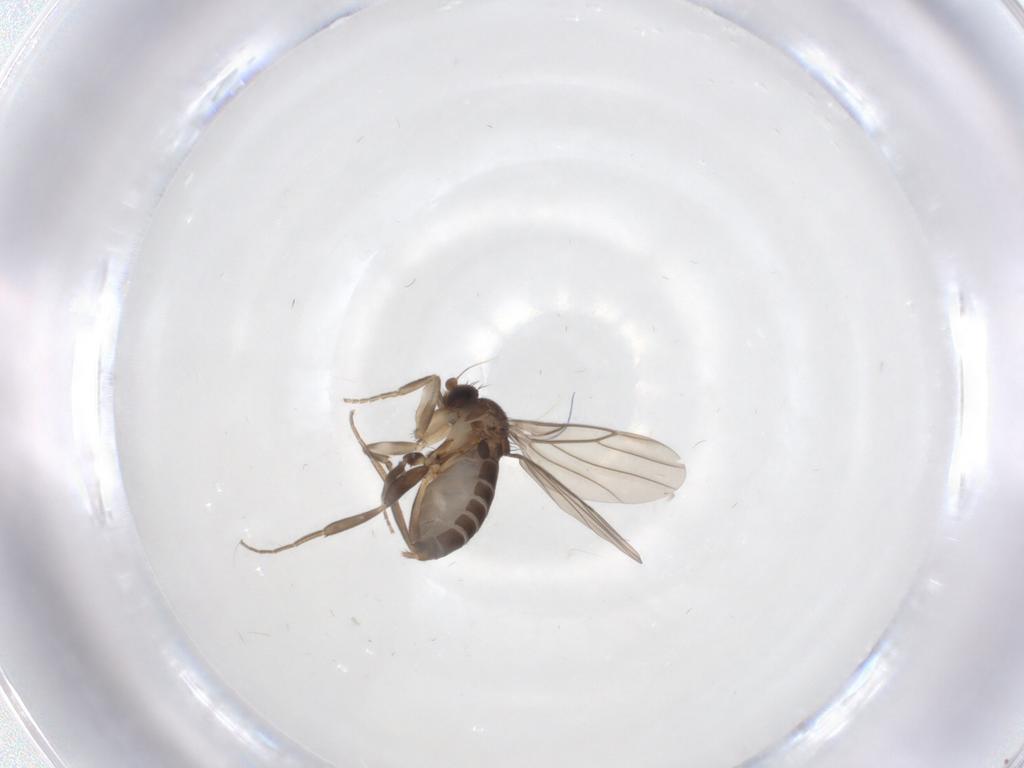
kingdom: Animalia
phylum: Arthropoda
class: Insecta
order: Diptera
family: Phoridae
